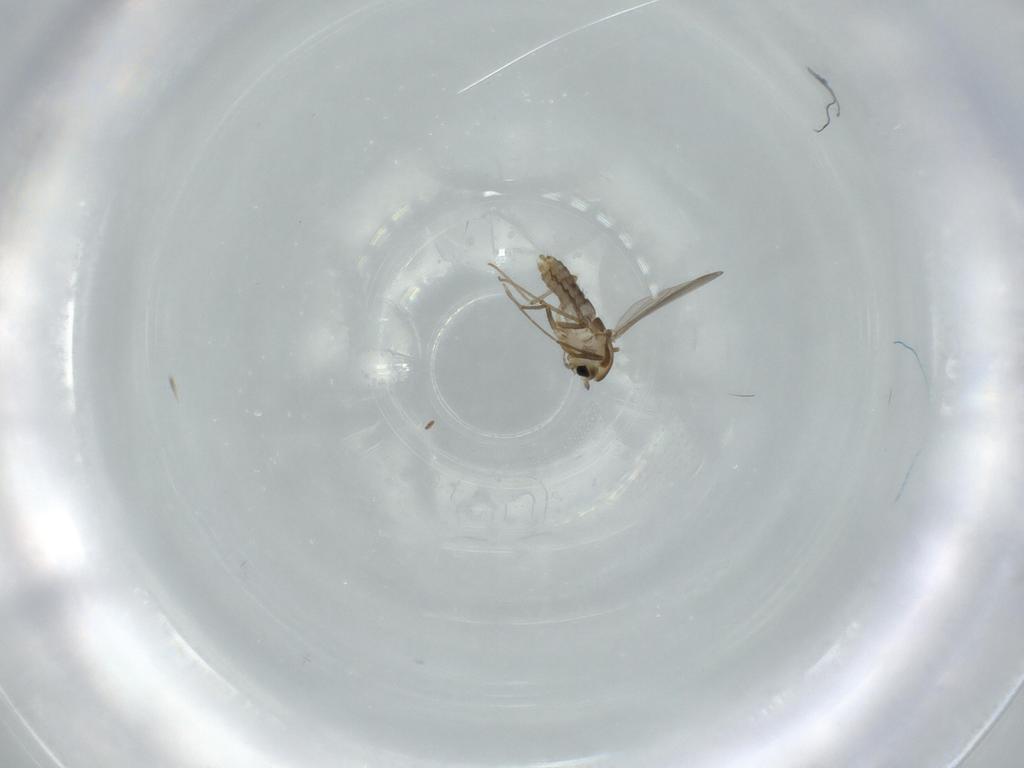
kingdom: Animalia
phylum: Arthropoda
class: Insecta
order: Diptera
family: Chironomidae
